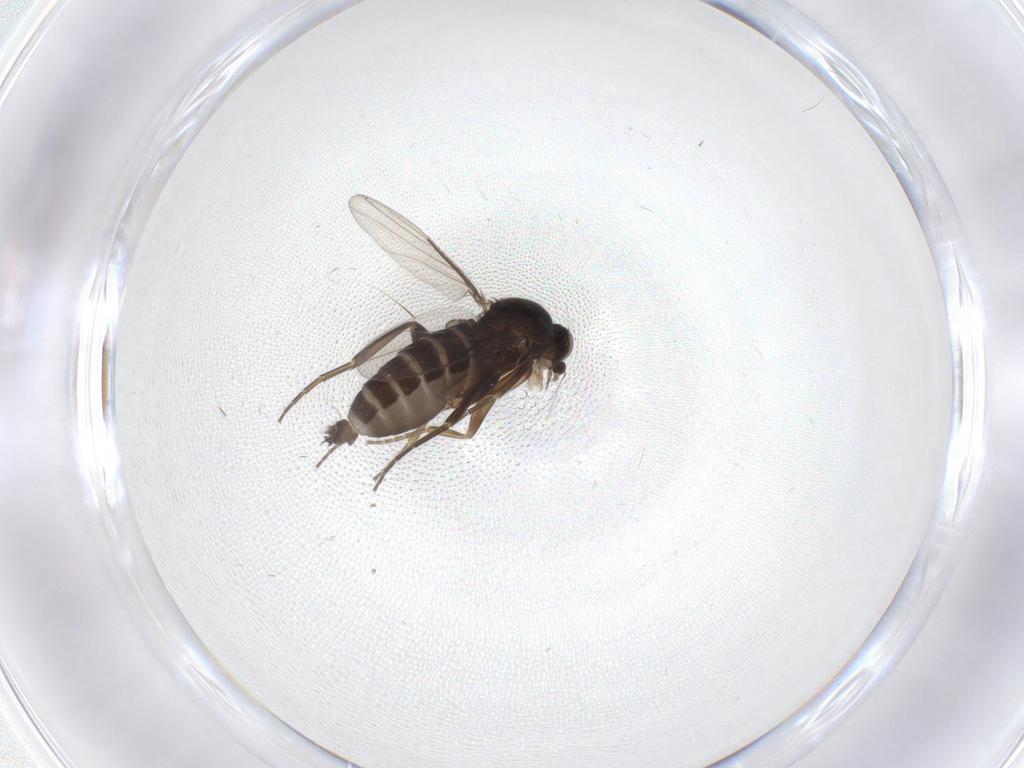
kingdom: Animalia
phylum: Arthropoda
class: Insecta
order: Diptera
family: Phoridae
